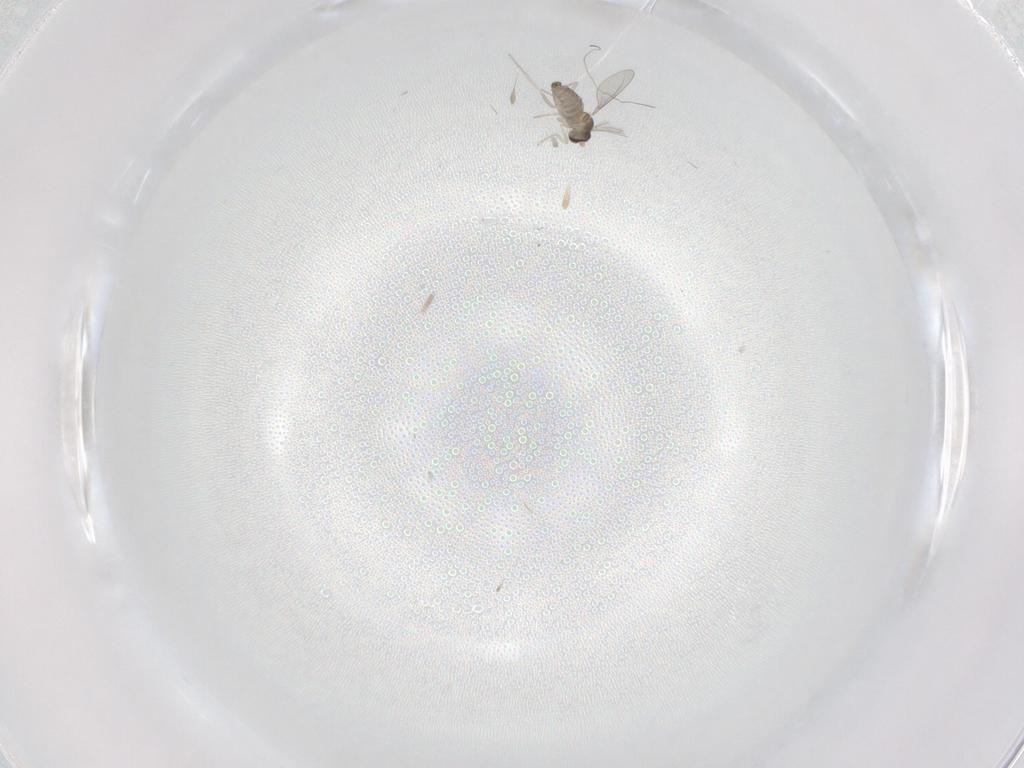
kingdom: Animalia
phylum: Arthropoda
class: Insecta
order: Diptera
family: Cecidomyiidae
